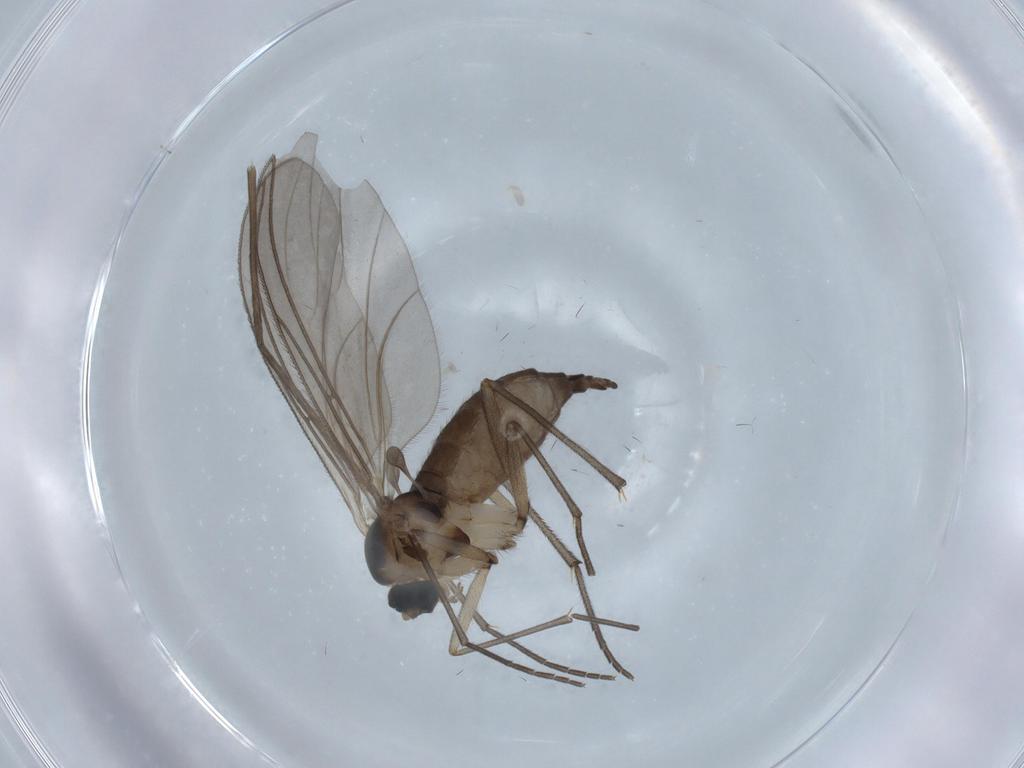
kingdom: Animalia
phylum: Arthropoda
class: Insecta
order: Diptera
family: Sciaridae
